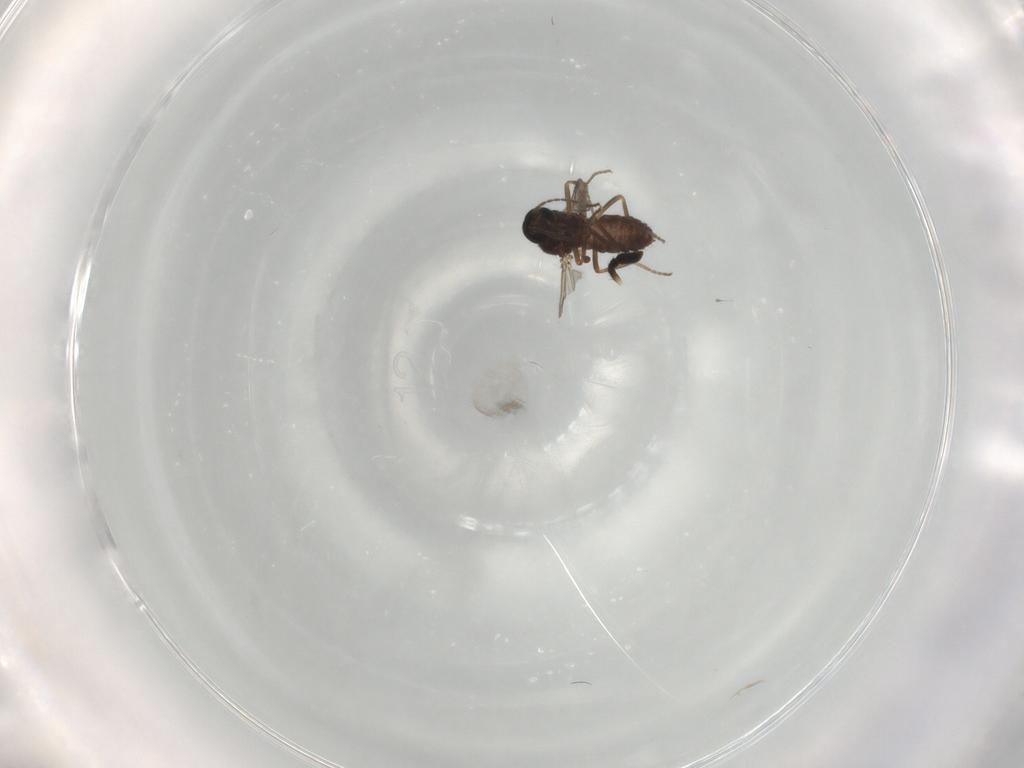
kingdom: Animalia
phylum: Arthropoda
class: Insecta
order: Diptera
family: Ceratopogonidae
